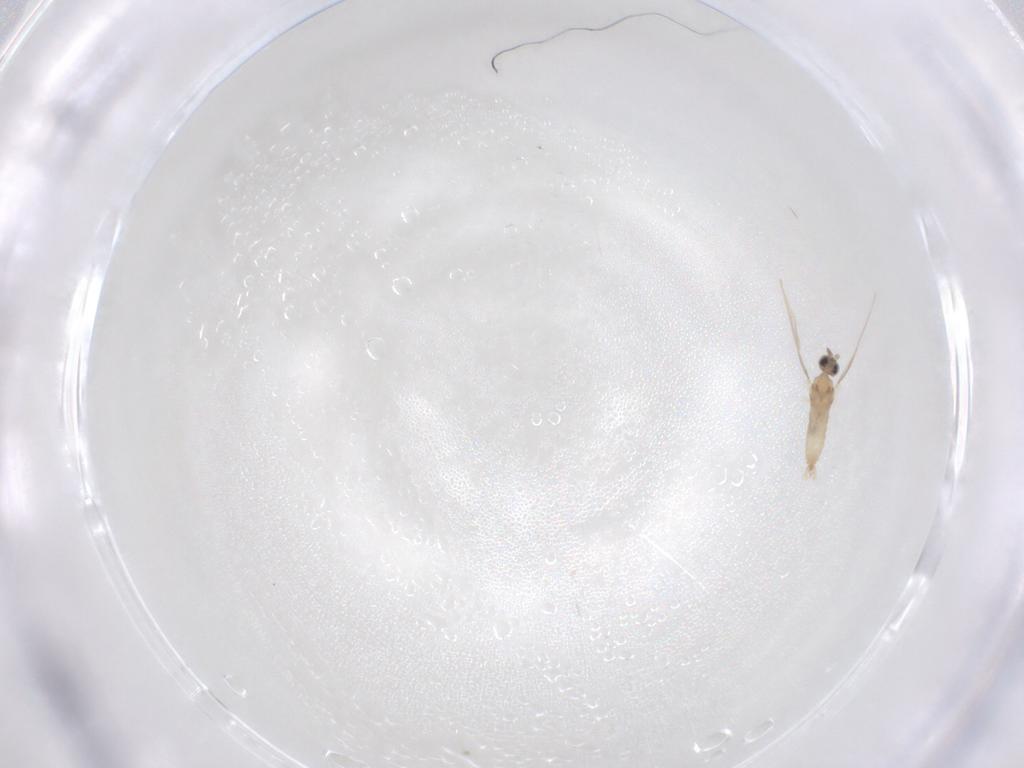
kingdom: Animalia
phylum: Arthropoda
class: Insecta
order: Diptera
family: Cecidomyiidae
